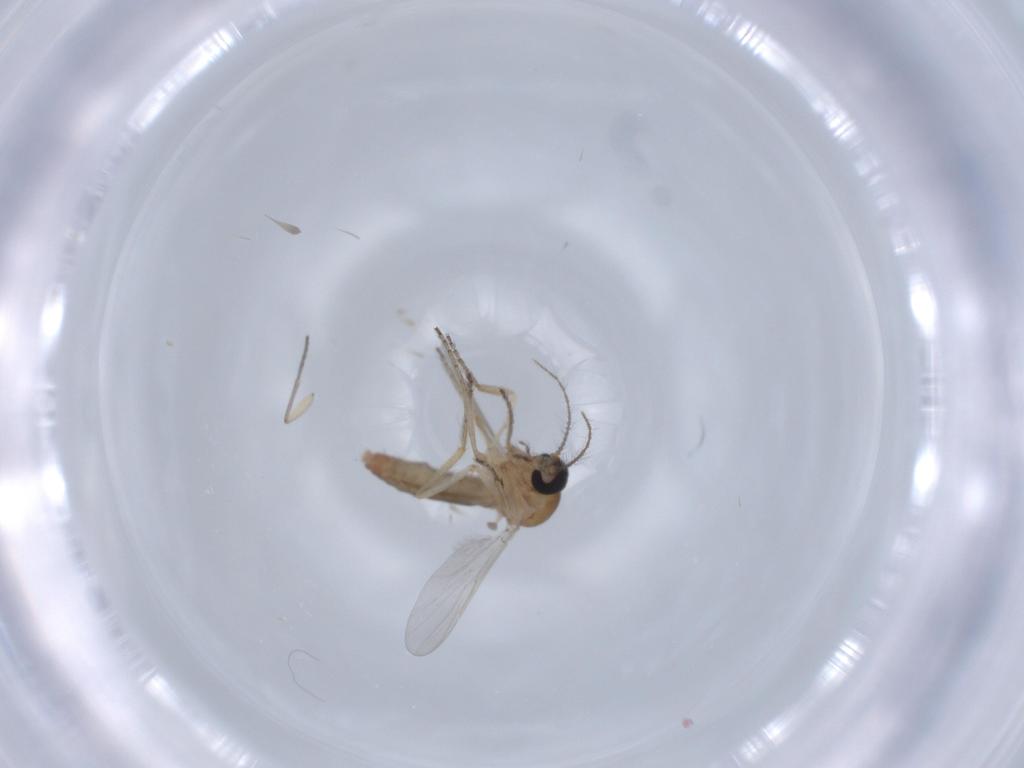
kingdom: Animalia
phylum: Arthropoda
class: Insecta
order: Diptera
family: Ceratopogonidae
